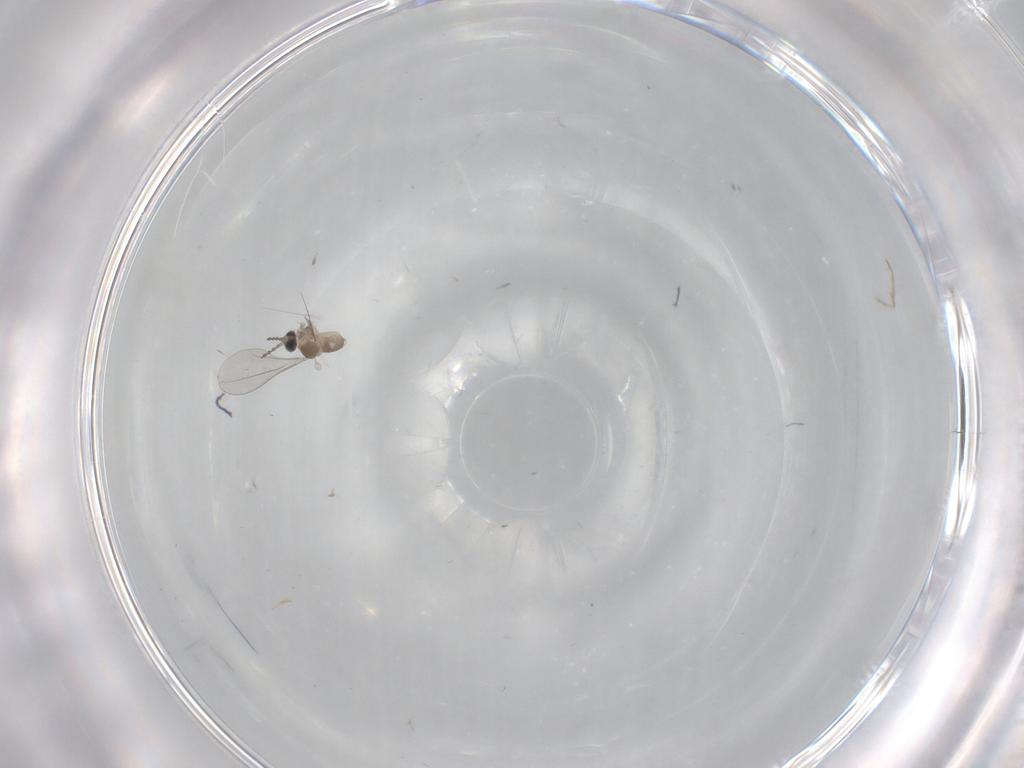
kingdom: Animalia
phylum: Arthropoda
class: Insecta
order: Diptera
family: Cecidomyiidae
